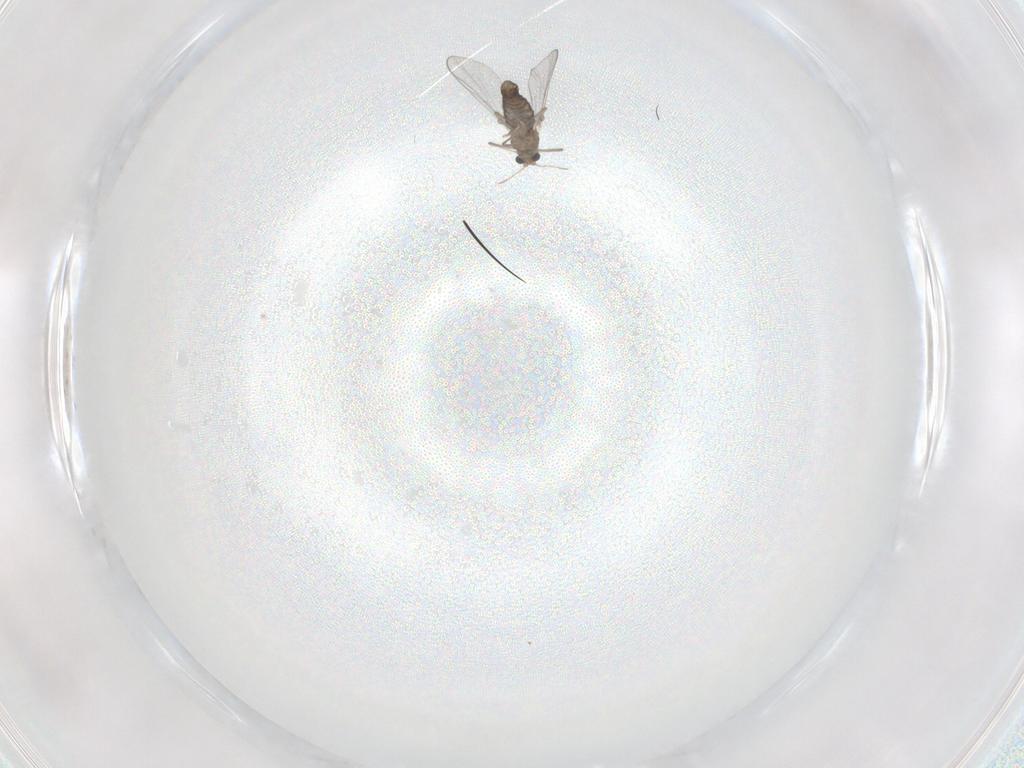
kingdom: Animalia
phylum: Arthropoda
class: Insecta
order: Diptera
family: Chironomidae
